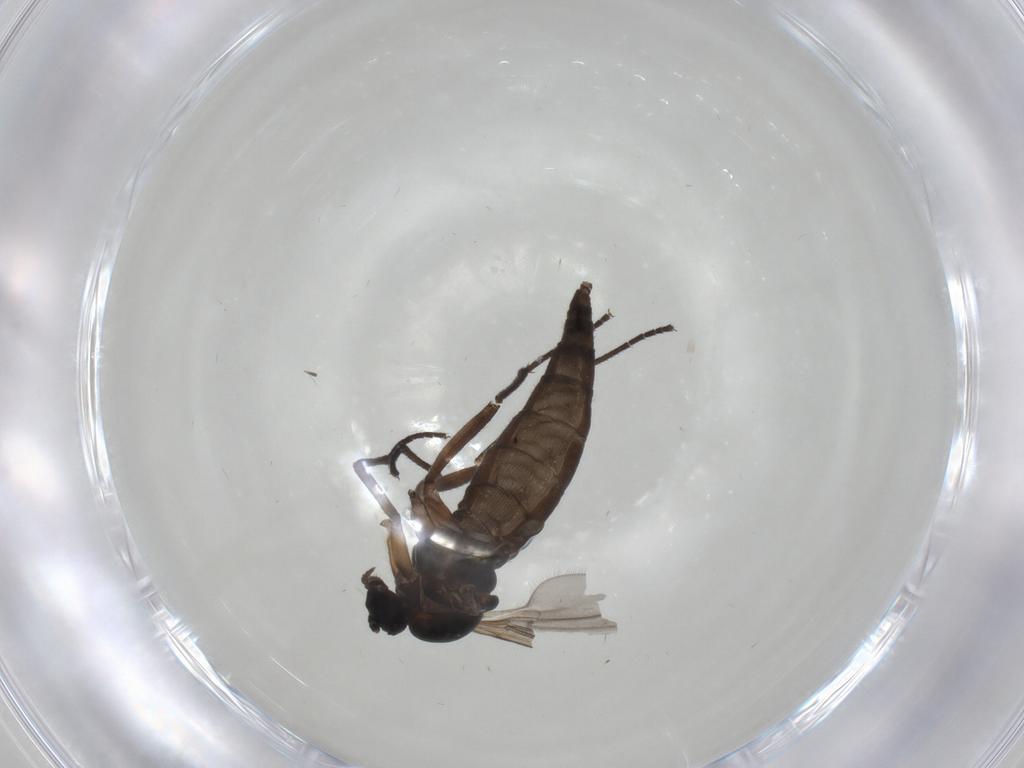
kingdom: Animalia
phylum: Arthropoda
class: Insecta
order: Diptera
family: Sciaridae
